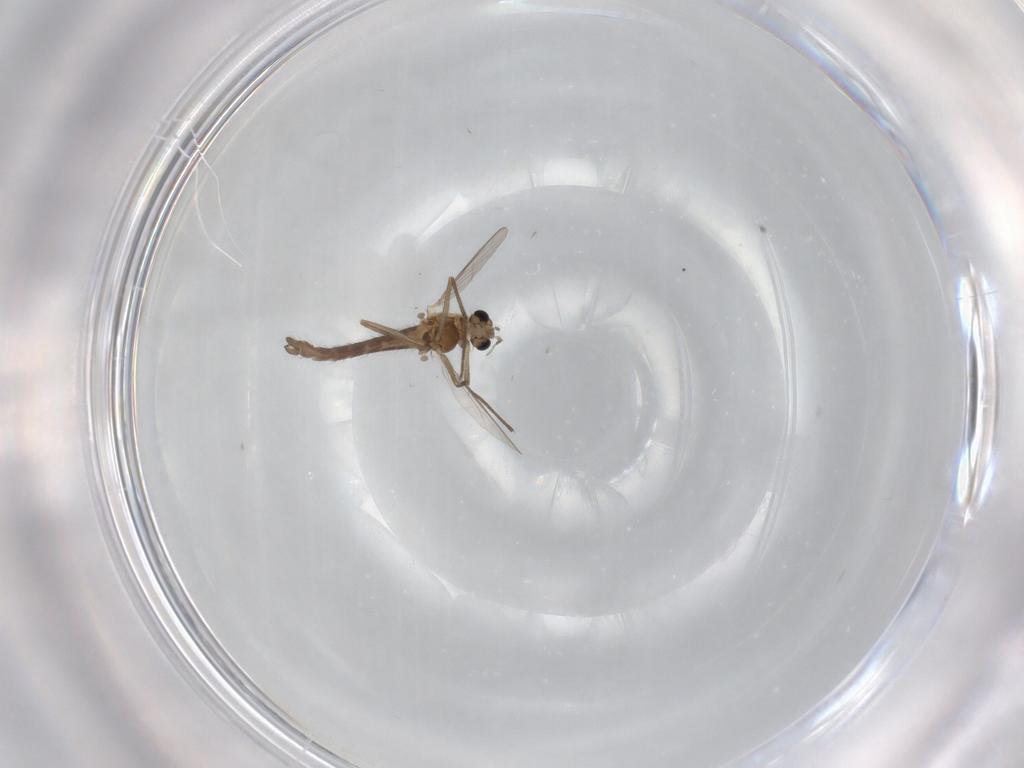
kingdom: Animalia
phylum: Arthropoda
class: Insecta
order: Diptera
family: Chironomidae
